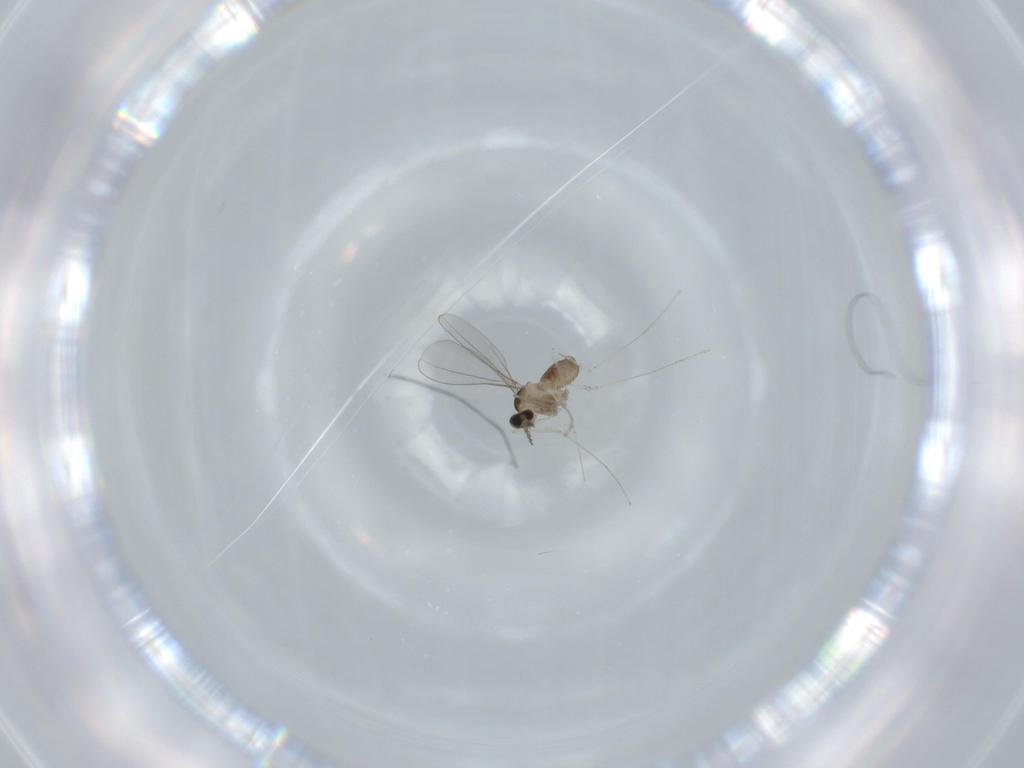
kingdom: Animalia
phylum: Arthropoda
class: Insecta
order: Diptera
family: Cecidomyiidae
